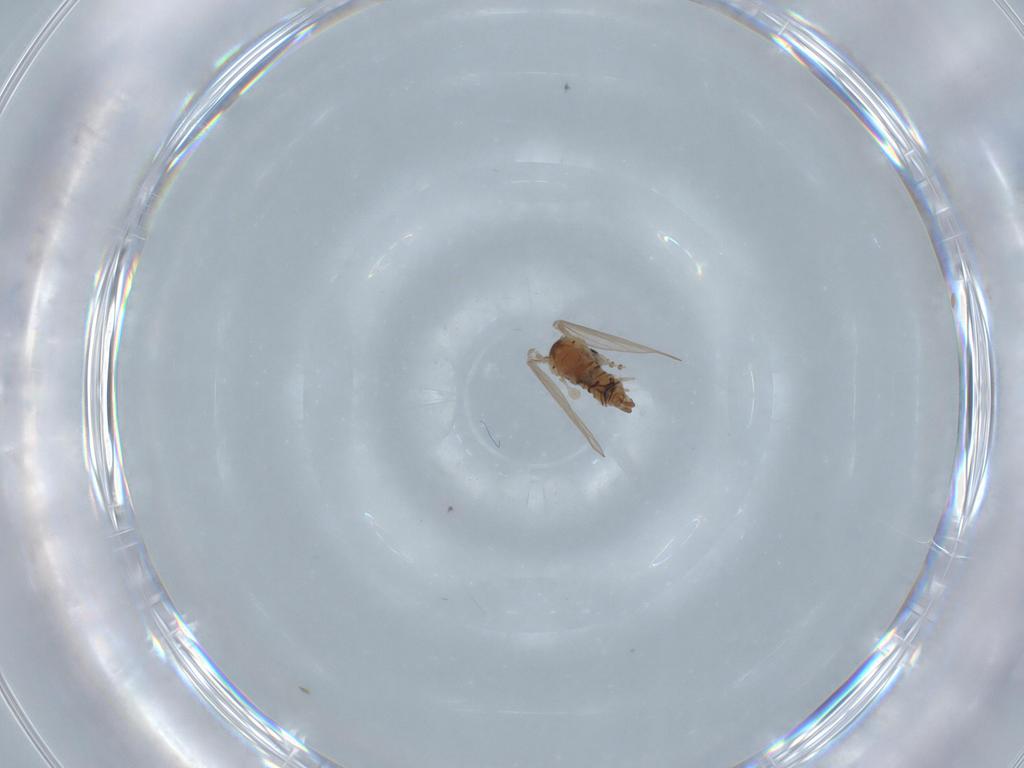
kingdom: Animalia
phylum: Arthropoda
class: Insecta
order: Diptera
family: Psychodidae
